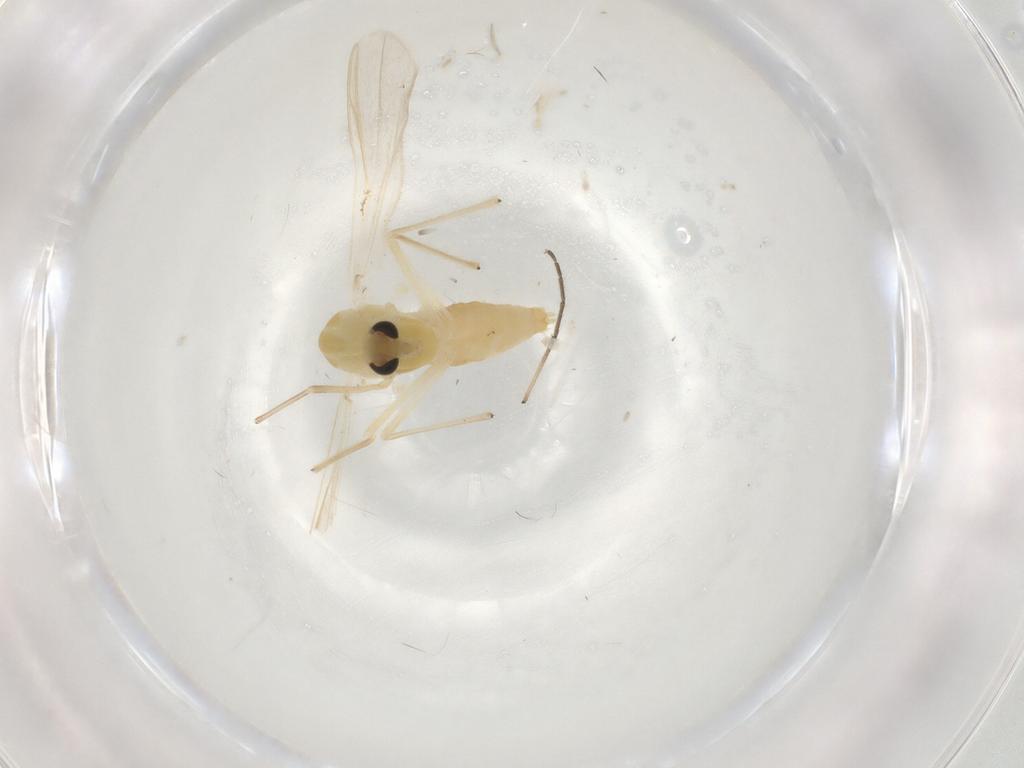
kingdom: Animalia
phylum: Arthropoda
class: Insecta
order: Diptera
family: Chironomidae
